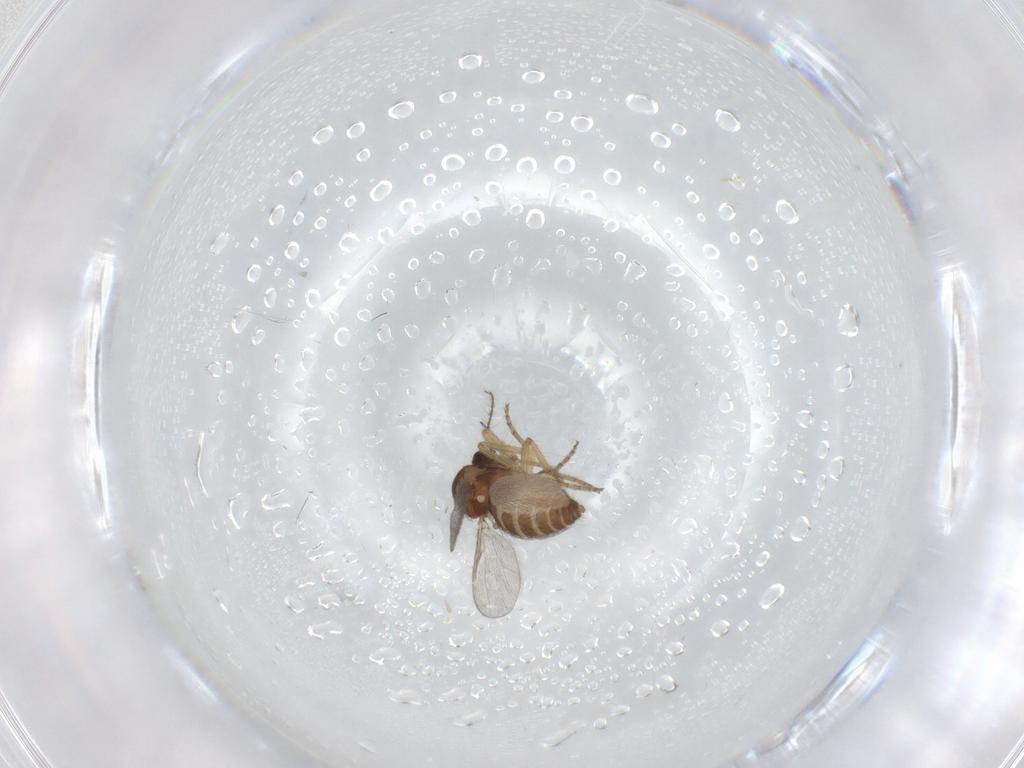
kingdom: Animalia
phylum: Arthropoda
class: Insecta
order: Diptera
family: Ceratopogonidae
